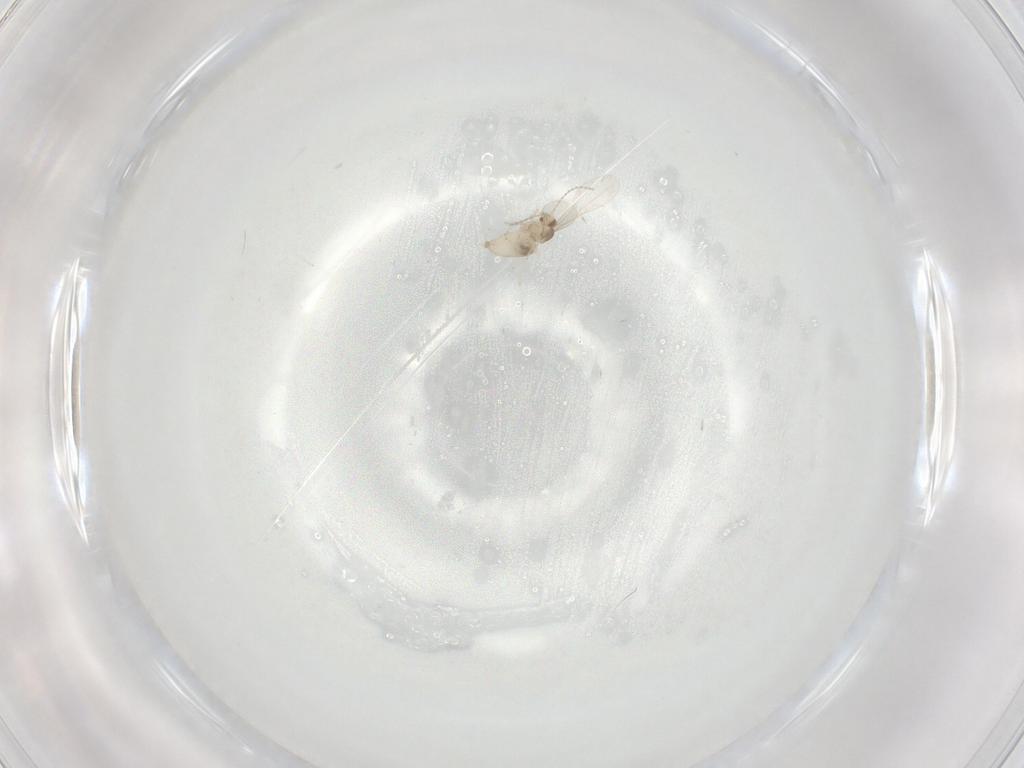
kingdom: Animalia
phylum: Arthropoda
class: Insecta
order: Diptera
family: Cecidomyiidae
